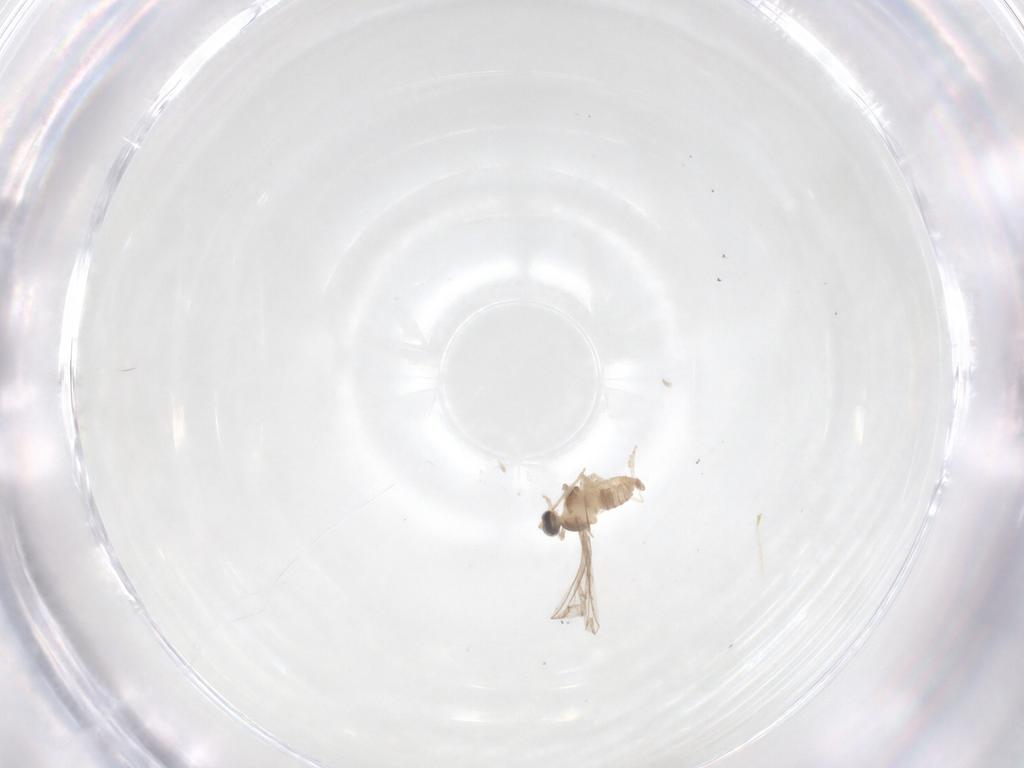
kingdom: Animalia
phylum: Arthropoda
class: Insecta
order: Diptera
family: Cecidomyiidae
